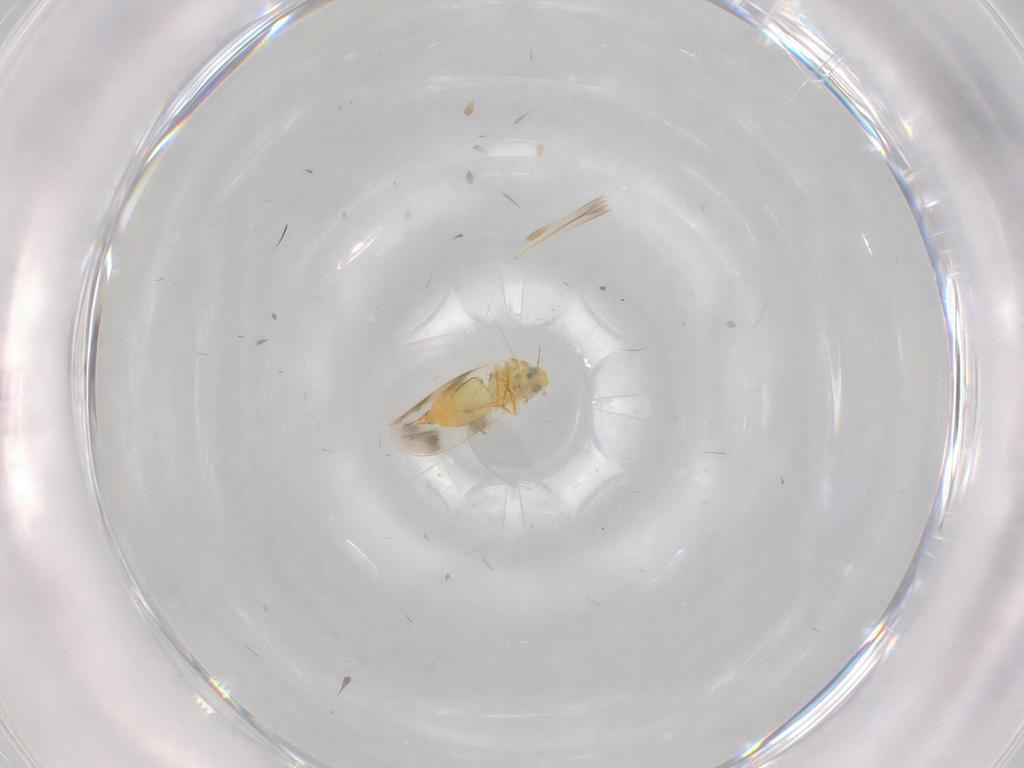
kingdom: Animalia
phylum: Arthropoda
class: Insecta
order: Hemiptera
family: Aleyrodidae
